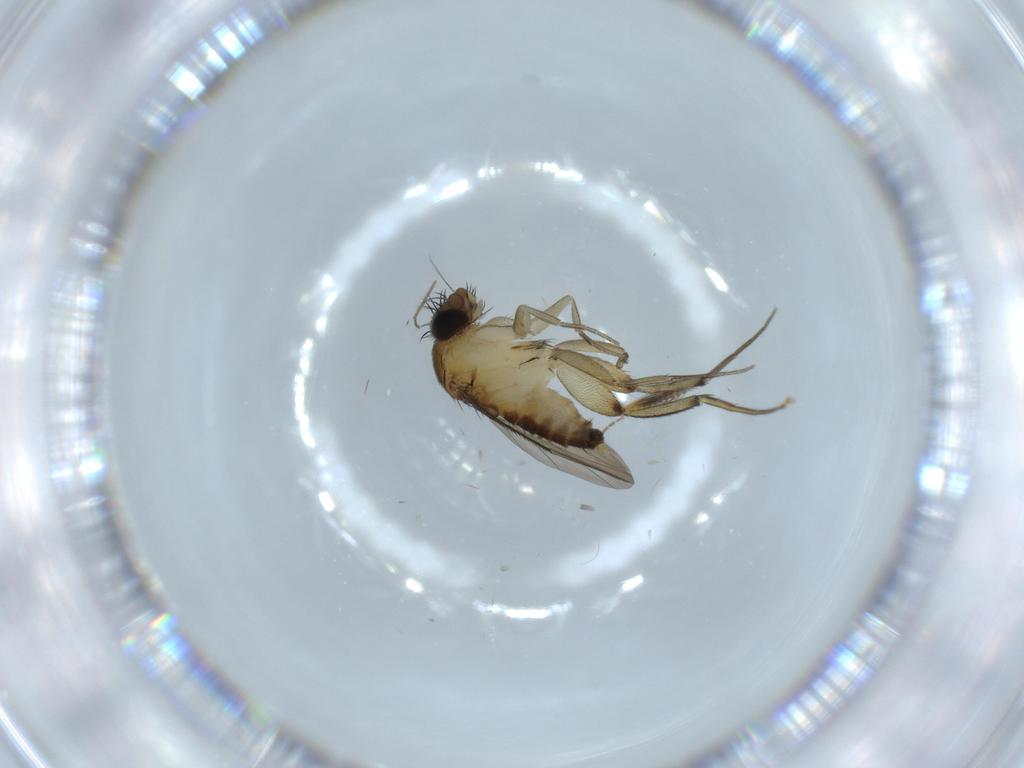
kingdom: Animalia
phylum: Arthropoda
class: Insecta
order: Diptera
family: Phoridae
